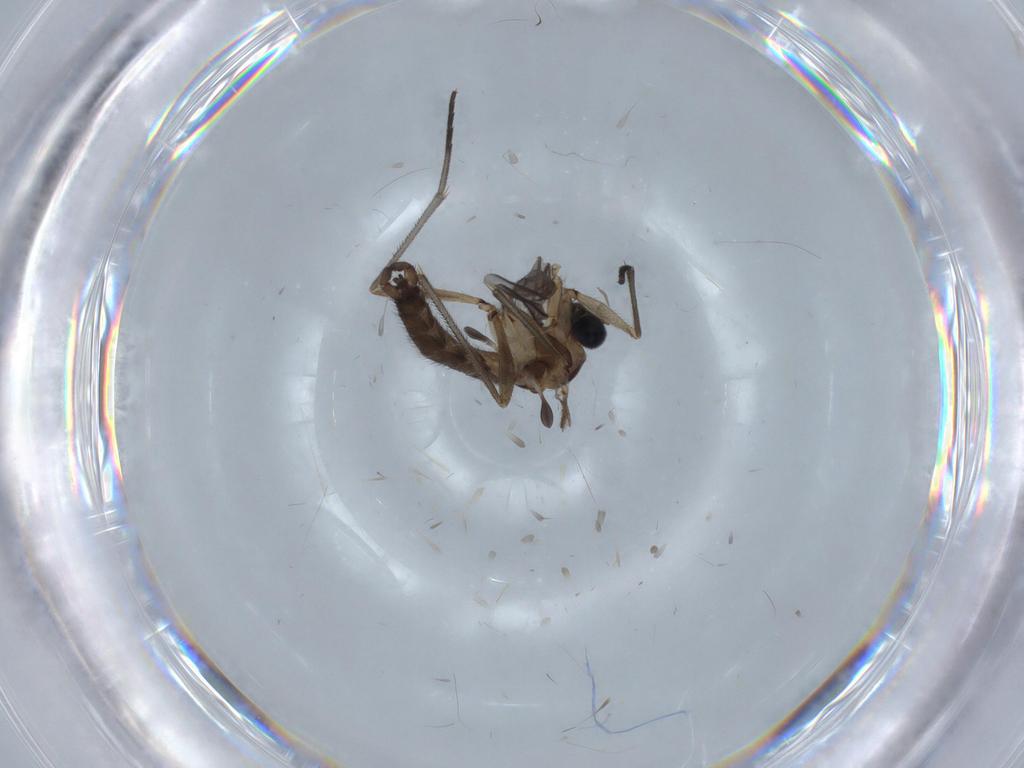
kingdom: Animalia
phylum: Arthropoda
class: Insecta
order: Diptera
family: Sciaridae
